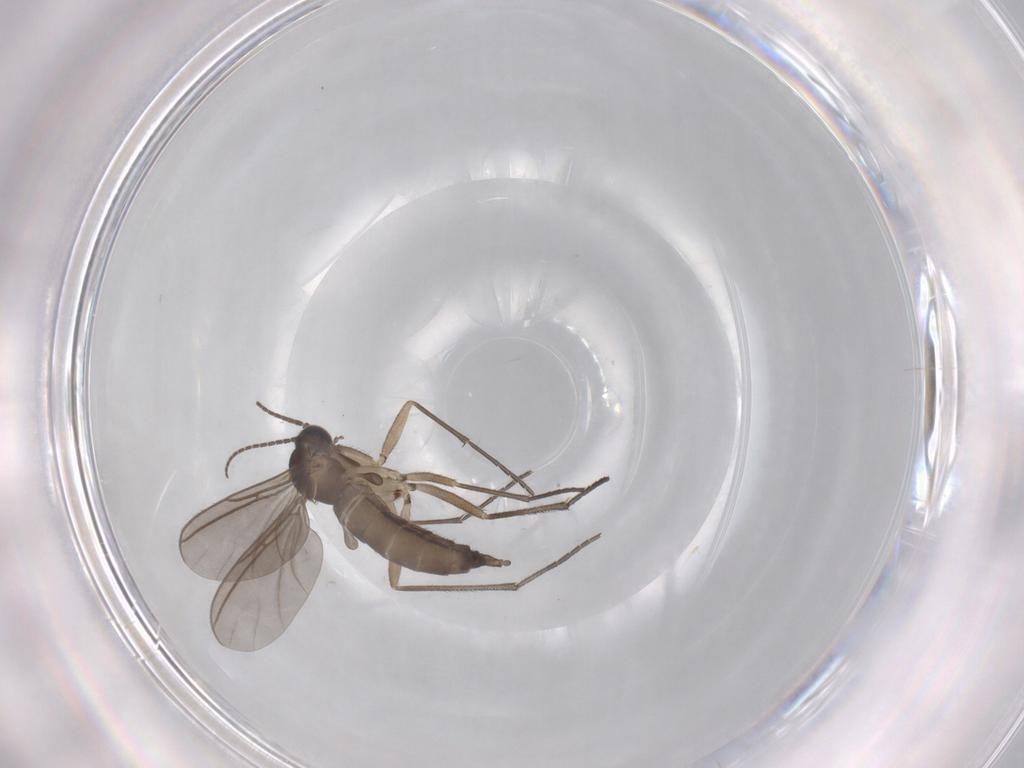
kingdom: Animalia
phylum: Arthropoda
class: Insecta
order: Diptera
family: Sciaridae
